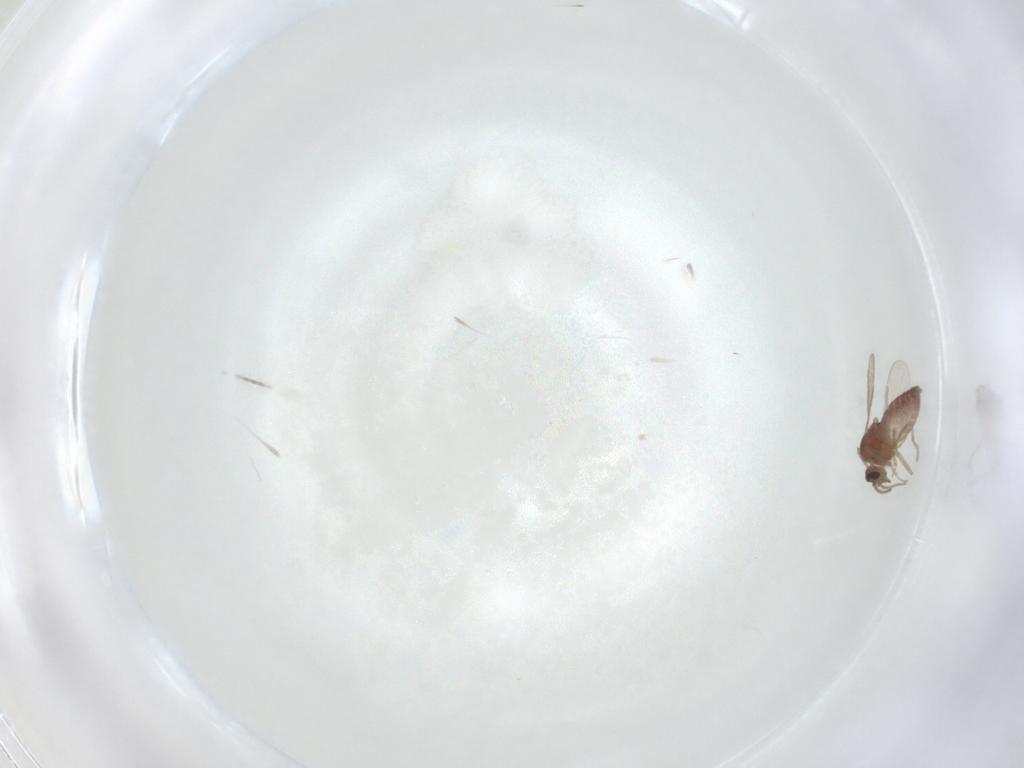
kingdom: Animalia
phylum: Arthropoda
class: Insecta
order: Diptera
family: Ceratopogonidae
